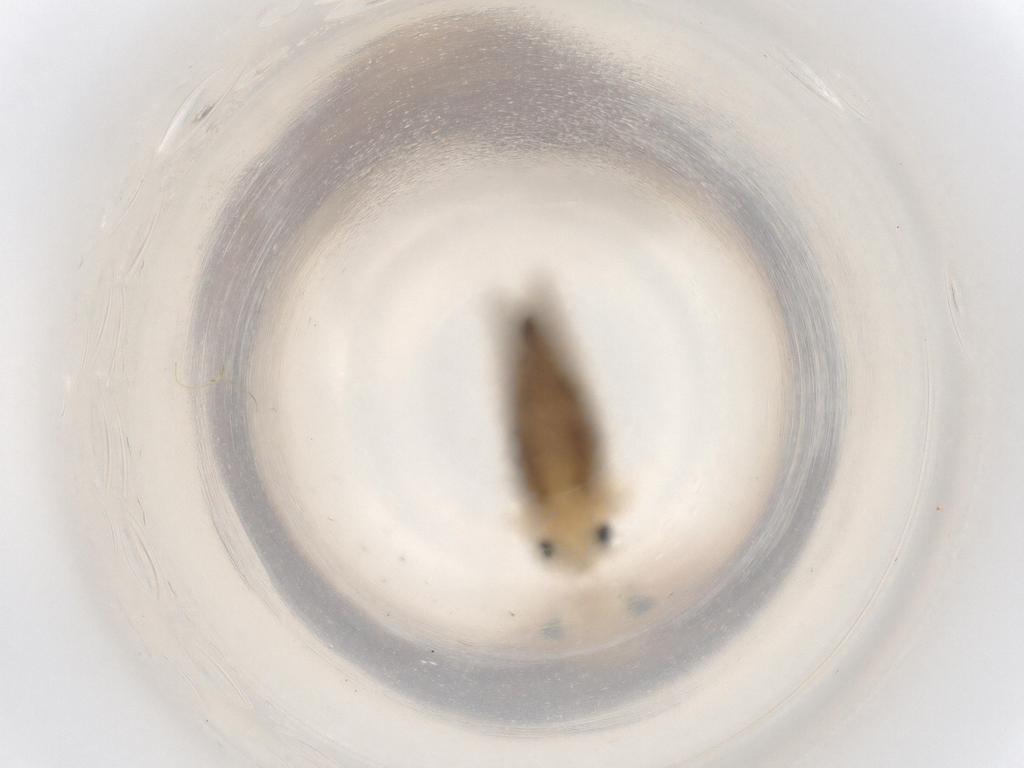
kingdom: Animalia
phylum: Arthropoda
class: Insecta
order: Hemiptera
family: Cicadellidae
